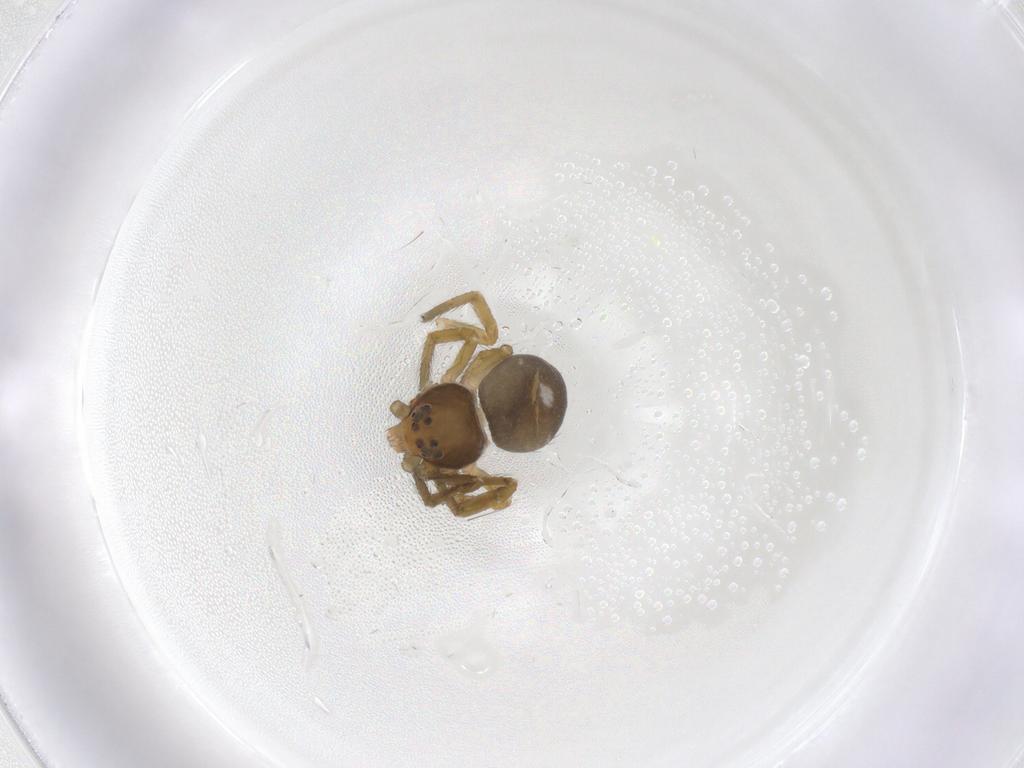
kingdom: Animalia
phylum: Arthropoda
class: Arachnida
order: Araneae
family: Thomisidae
